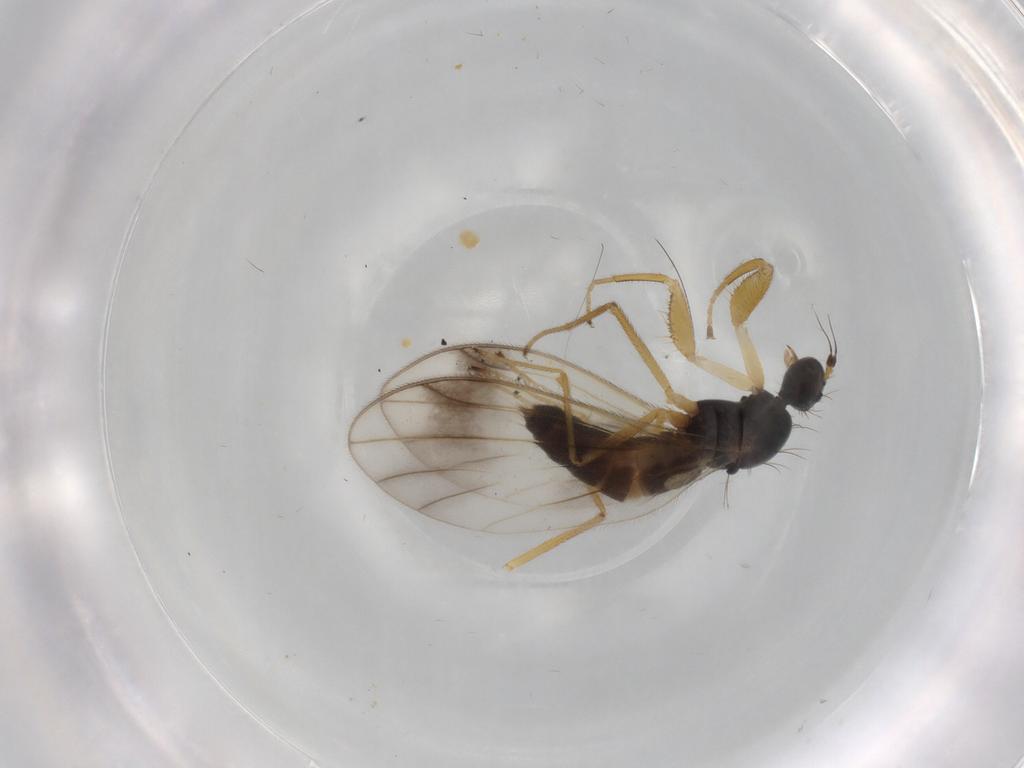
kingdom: Animalia
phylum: Arthropoda
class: Insecta
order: Diptera
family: Empididae
